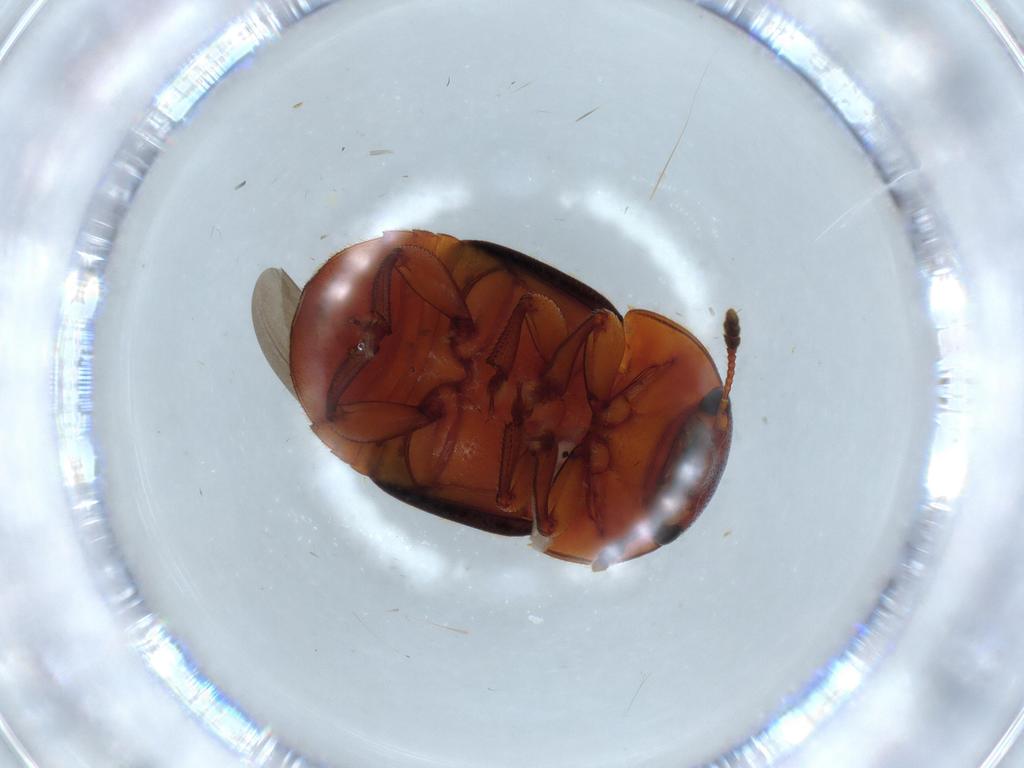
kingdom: Animalia
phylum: Arthropoda
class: Insecta
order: Coleoptera
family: Nitidulidae
